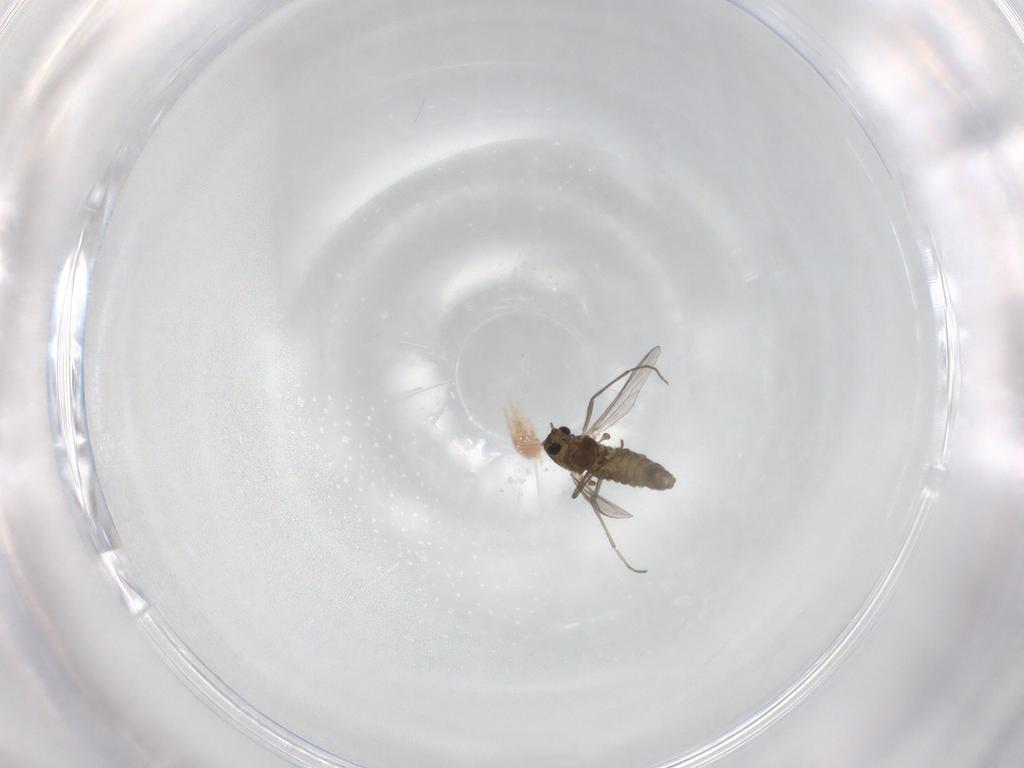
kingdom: Animalia
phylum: Arthropoda
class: Insecta
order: Diptera
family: Chironomidae
